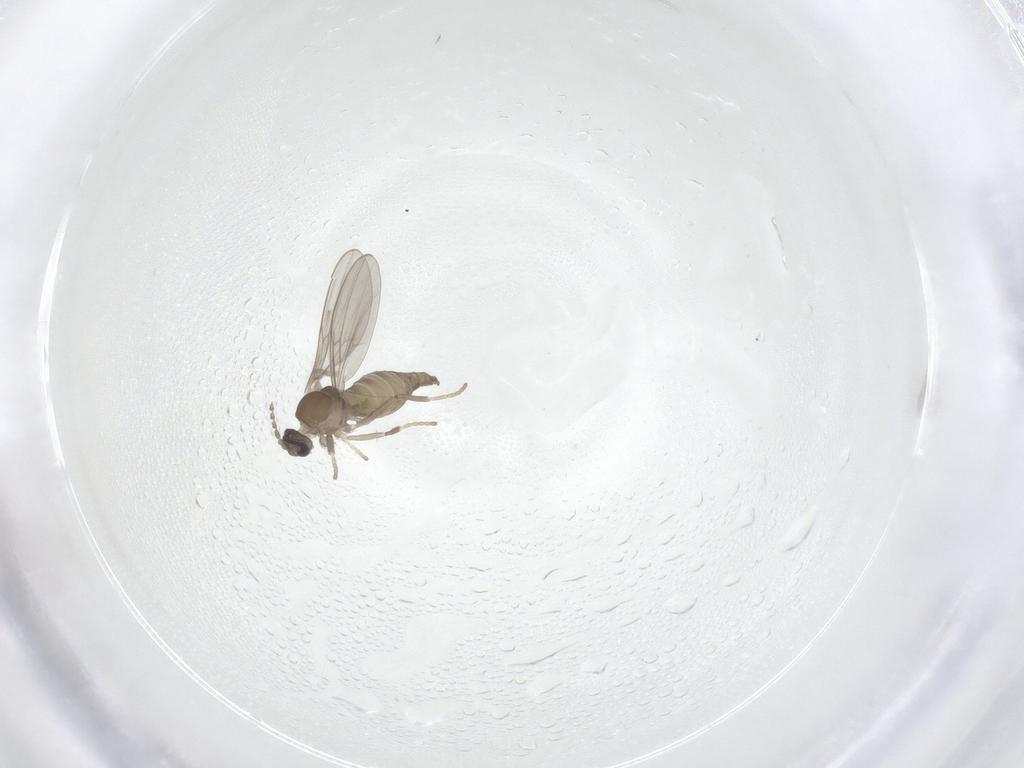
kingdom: Animalia
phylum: Arthropoda
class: Insecta
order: Diptera
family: Cecidomyiidae
